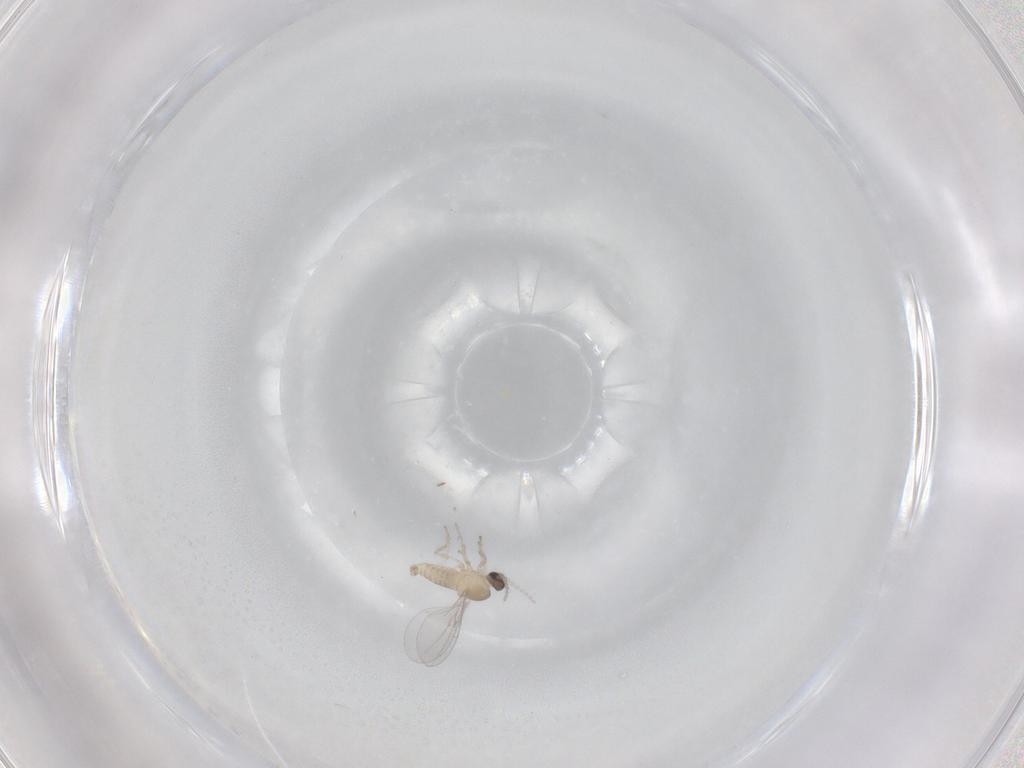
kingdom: Animalia
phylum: Arthropoda
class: Insecta
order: Diptera
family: Cecidomyiidae
